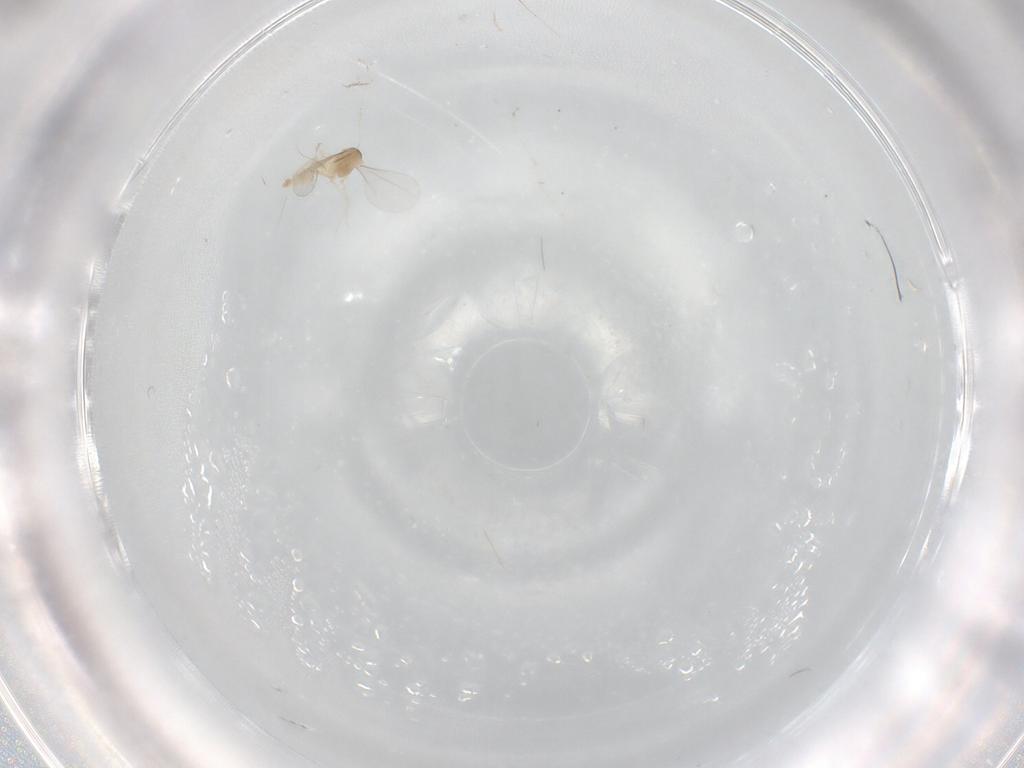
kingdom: Animalia
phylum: Arthropoda
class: Insecta
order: Diptera
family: Cecidomyiidae
